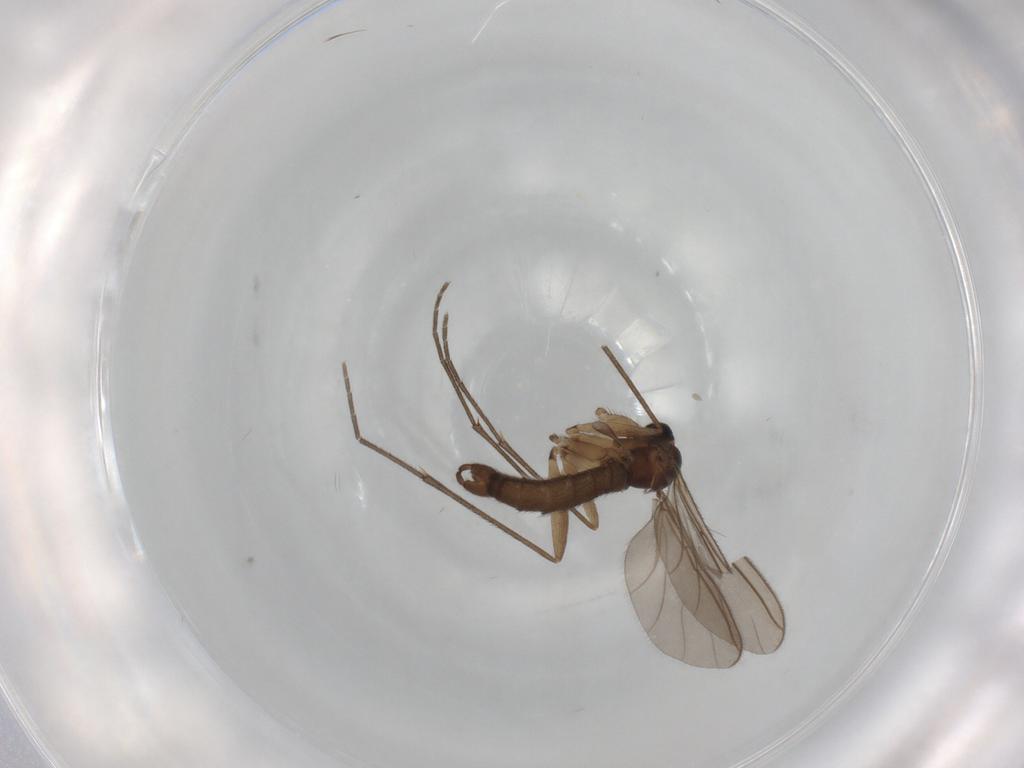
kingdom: Animalia
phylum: Arthropoda
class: Insecta
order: Diptera
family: Sciaridae
